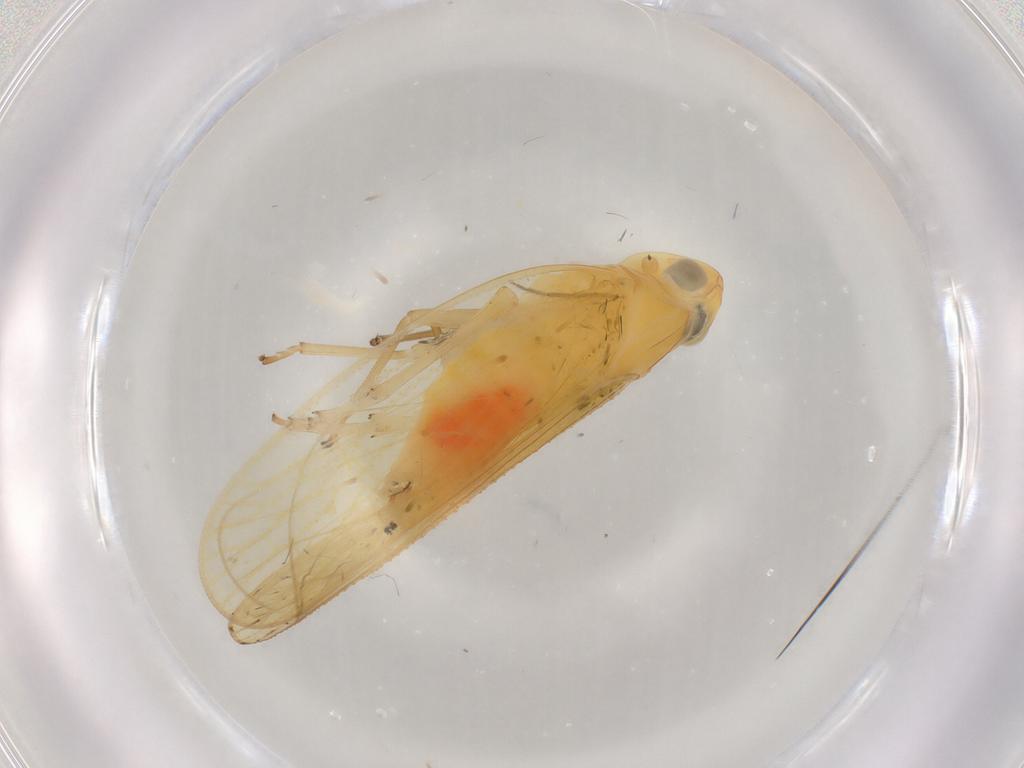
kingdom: Animalia
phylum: Arthropoda
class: Insecta
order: Hemiptera
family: Cixiidae
